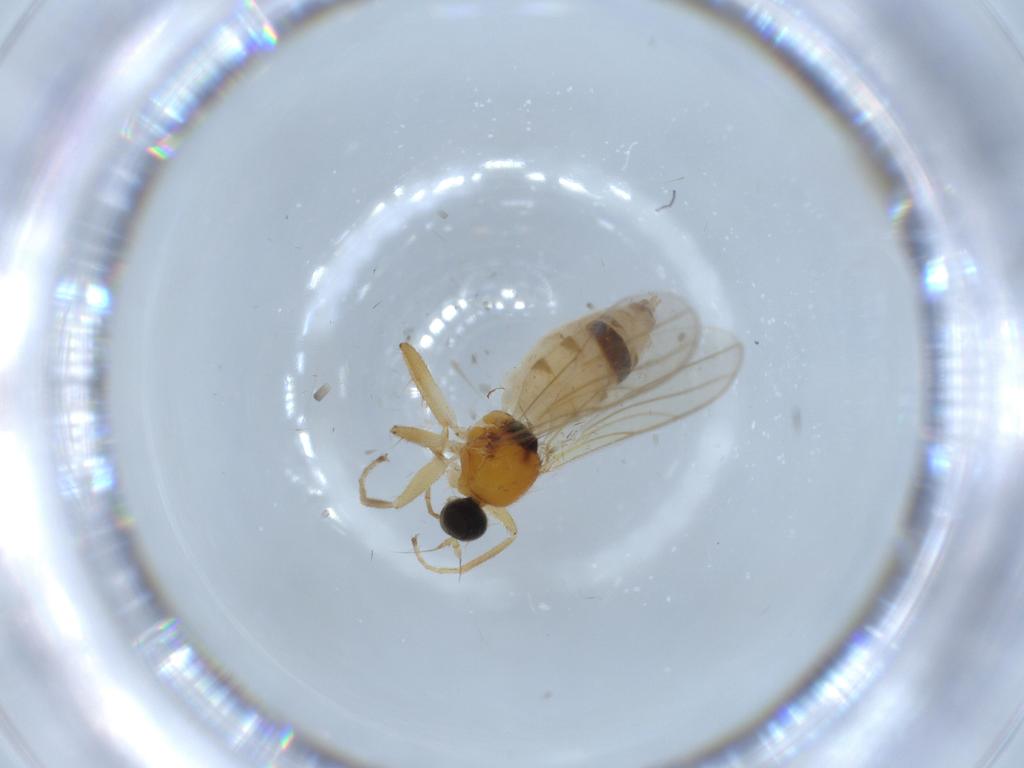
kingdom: Animalia
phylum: Arthropoda
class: Insecta
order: Diptera
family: Hybotidae
